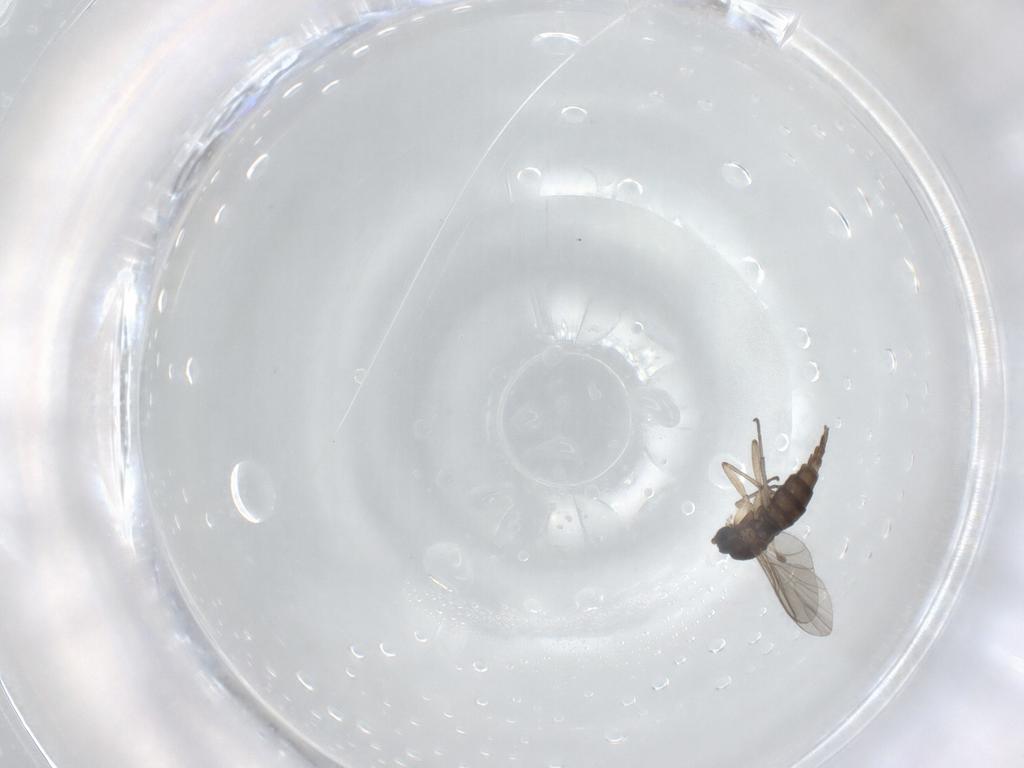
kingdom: Animalia
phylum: Arthropoda
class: Insecta
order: Diptera
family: Sciaridae
